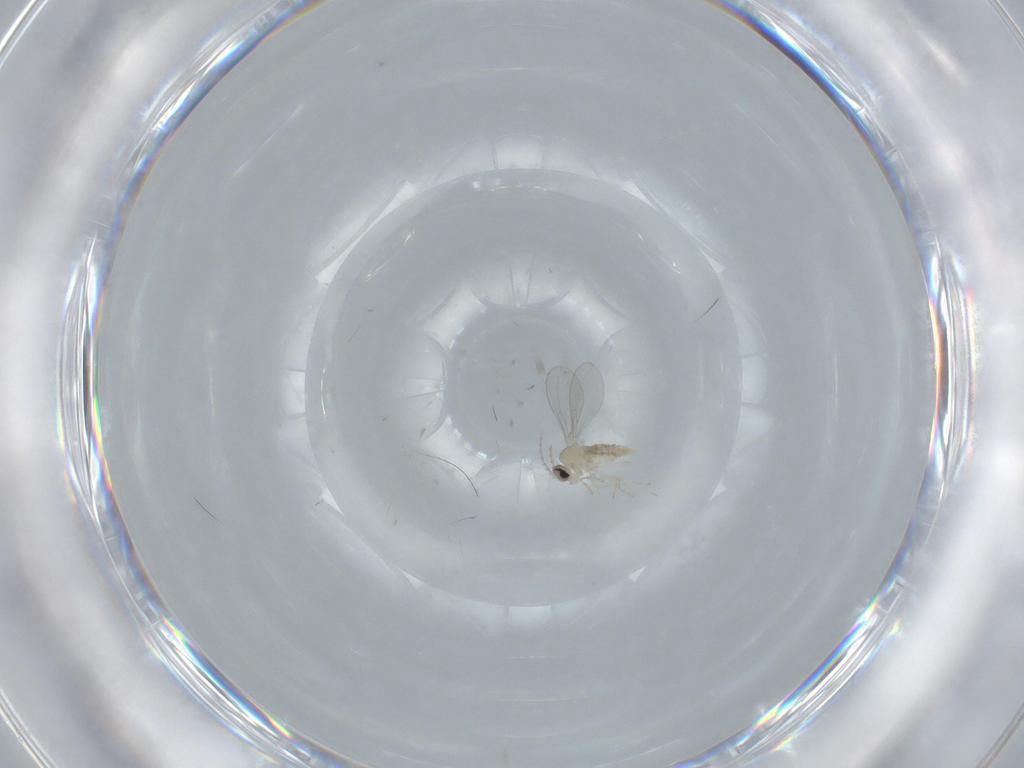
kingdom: Animalia
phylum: Arthropoda
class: Insecta
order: Diptera
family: Cecidomyiidae
